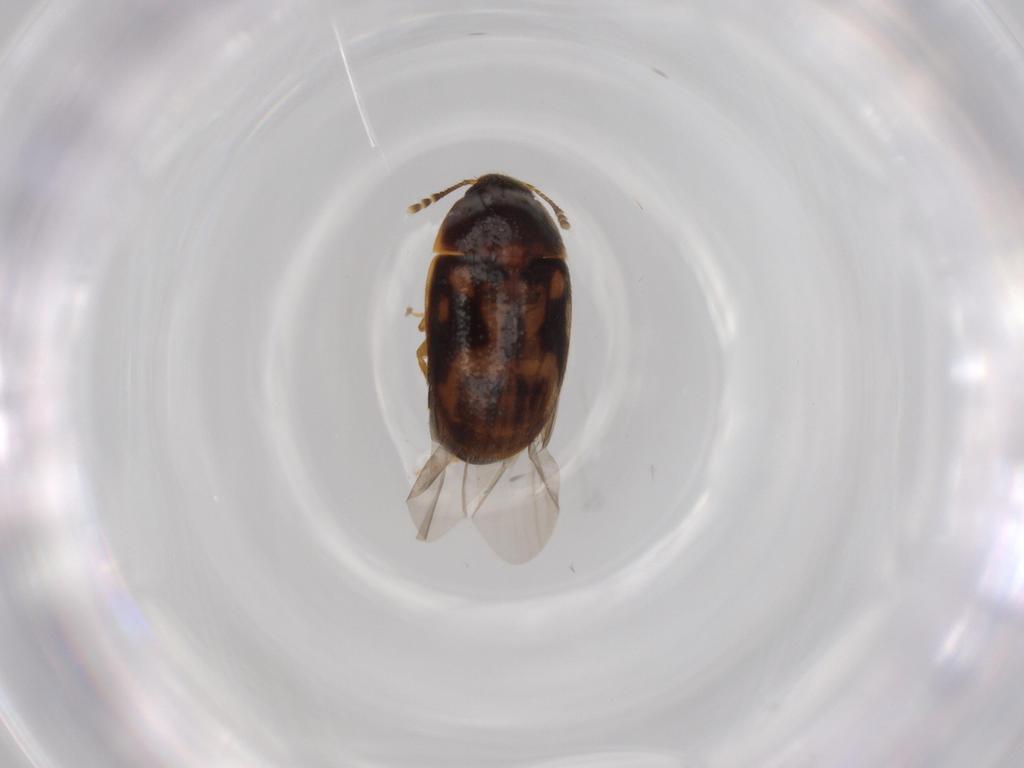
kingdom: Animalia
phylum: Arthropoda
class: Insecta
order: Coleoptera
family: Mycetophagidae
